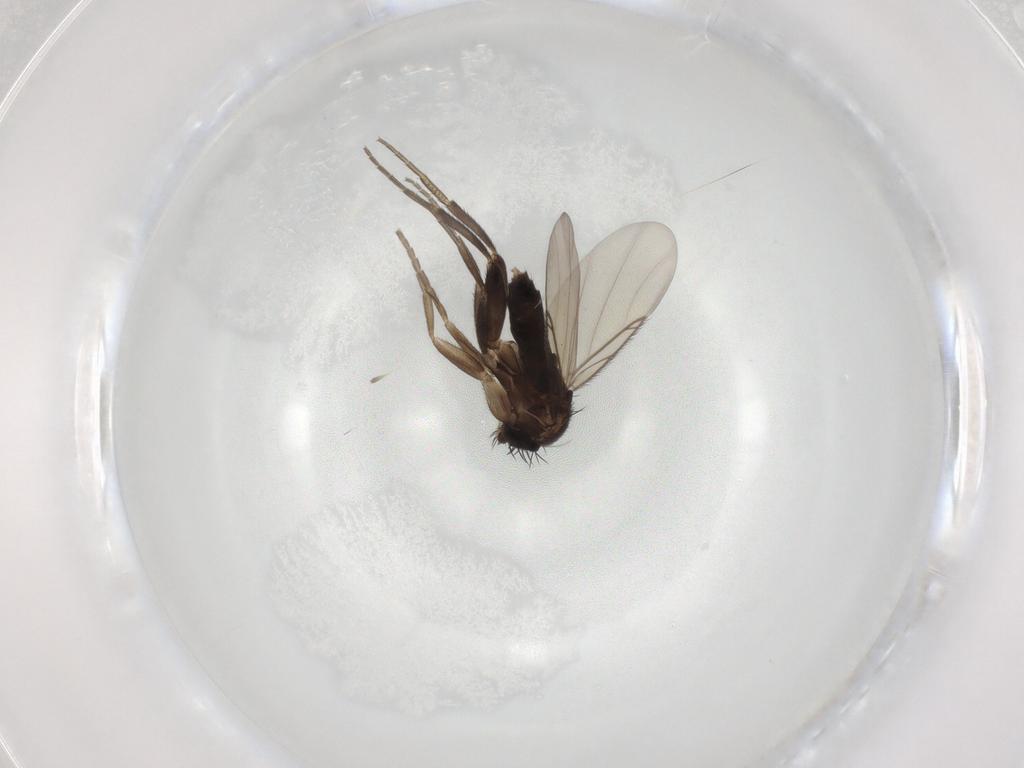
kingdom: Animalia
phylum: Arthropoda
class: Insecta
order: Diptera
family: Phoridae
